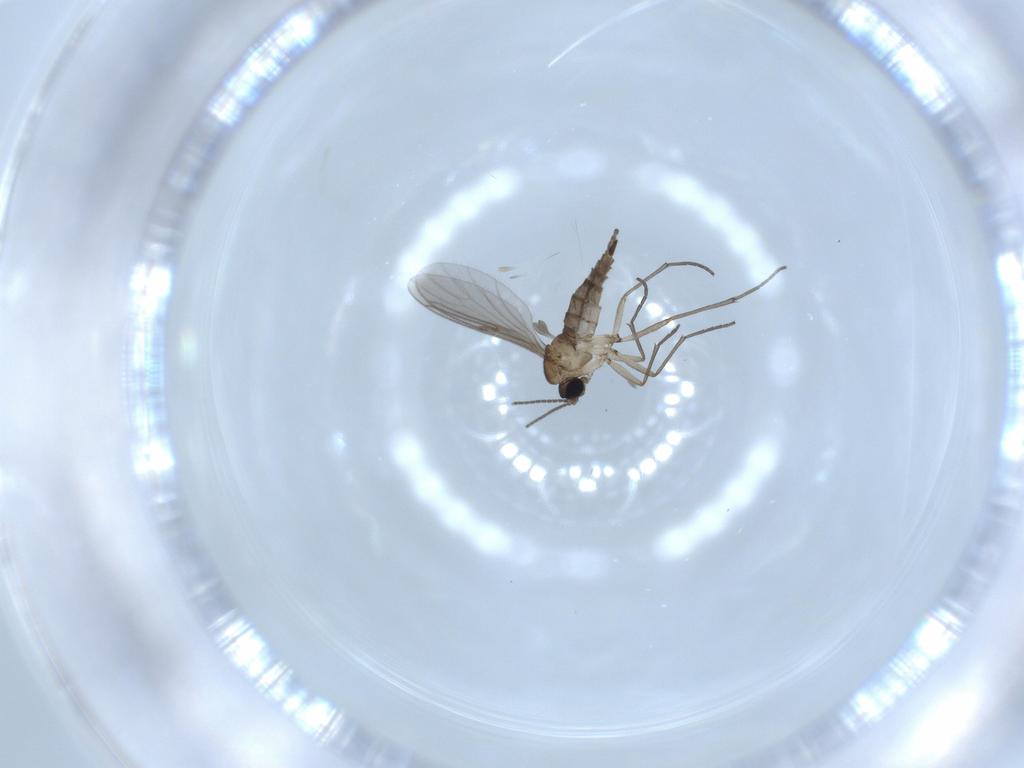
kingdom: Animalia
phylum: Arthropoda
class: Insecta
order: Diptera
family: Sciaridae
